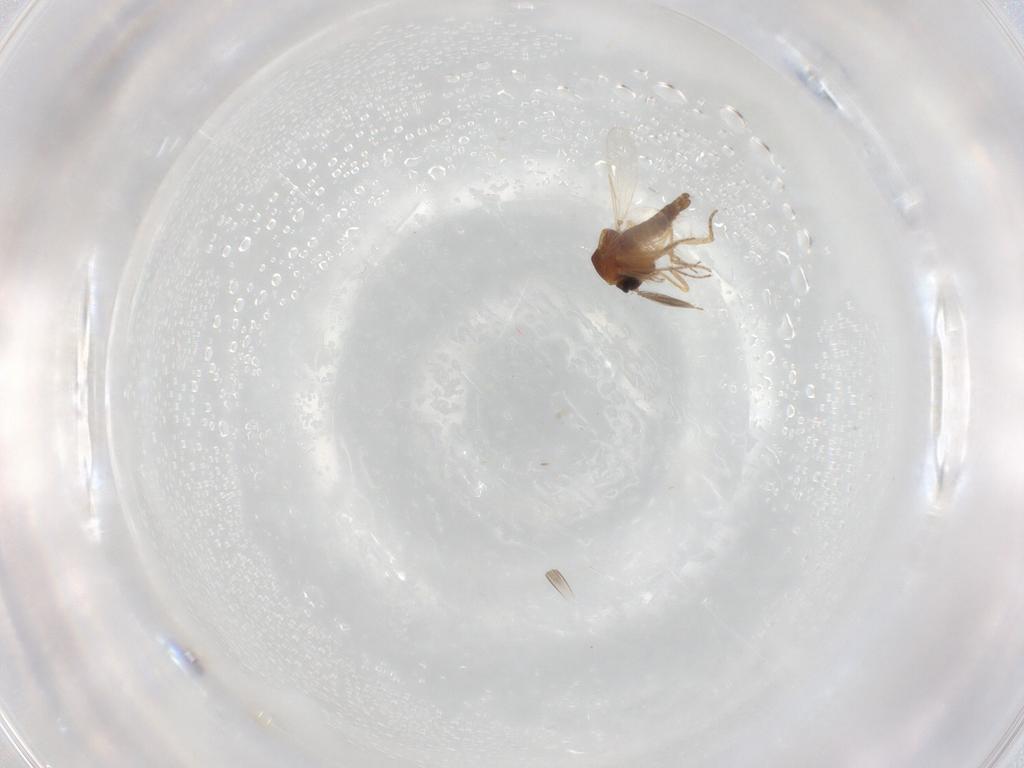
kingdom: Animalia
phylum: Arthropoda
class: Insecta
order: Diptera
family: Ceratopogonidae
